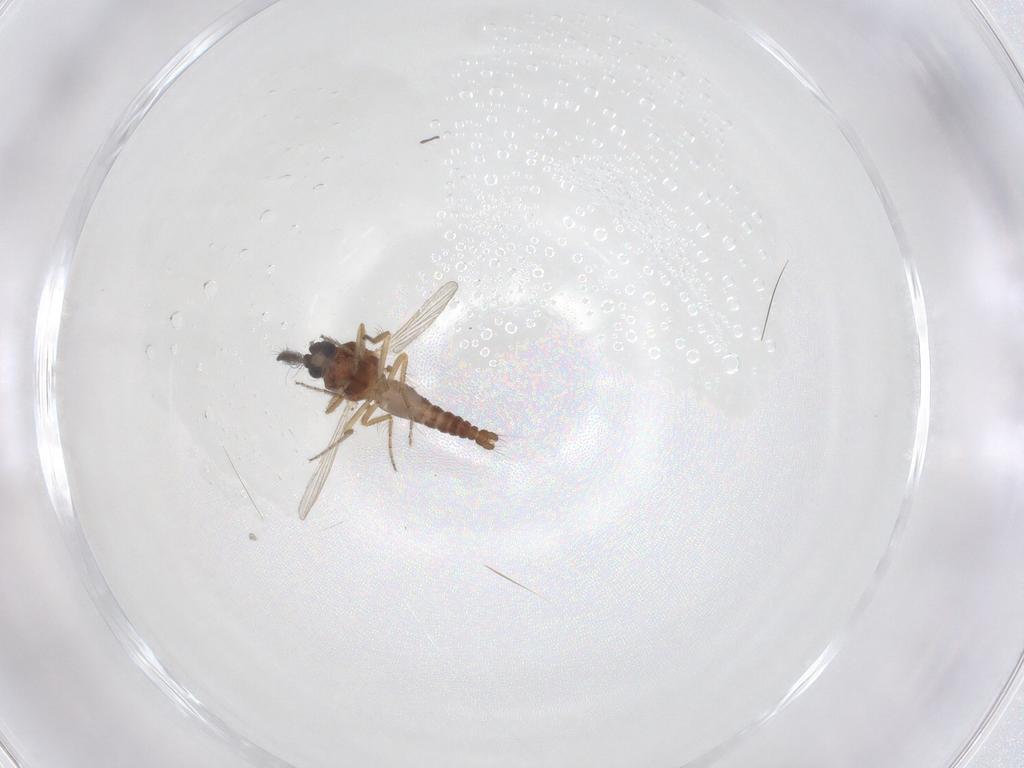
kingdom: Animalia
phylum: Arthropoda
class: Insecta
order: Diptera
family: Ceratopogonidae
